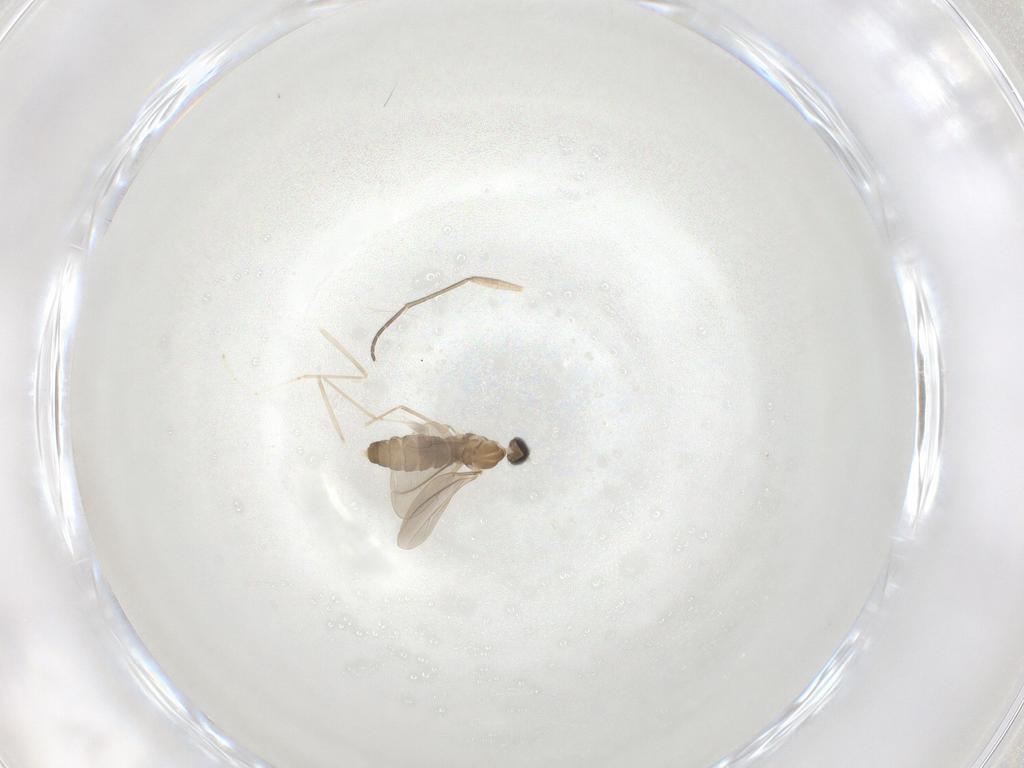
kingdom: Animalia
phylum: Arthropoda
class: Insecta
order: Diptera
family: Cecidomyiidae
